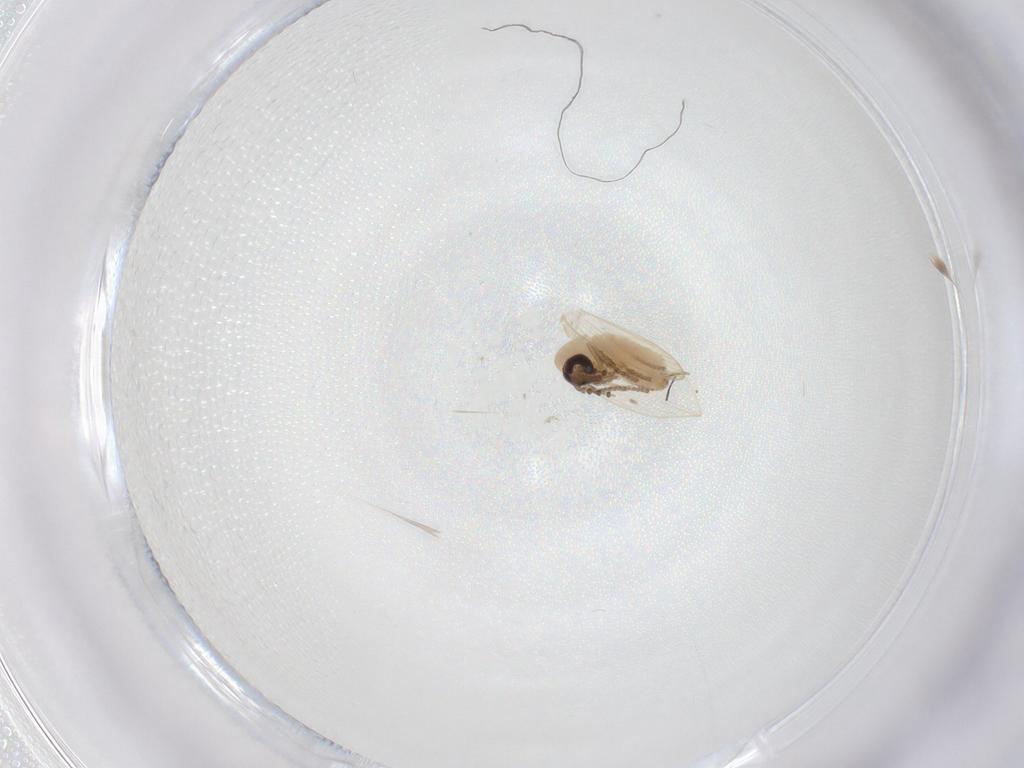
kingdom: Animalia
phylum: Arthropoda
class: Insecta
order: Diptera
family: Psychodidae
